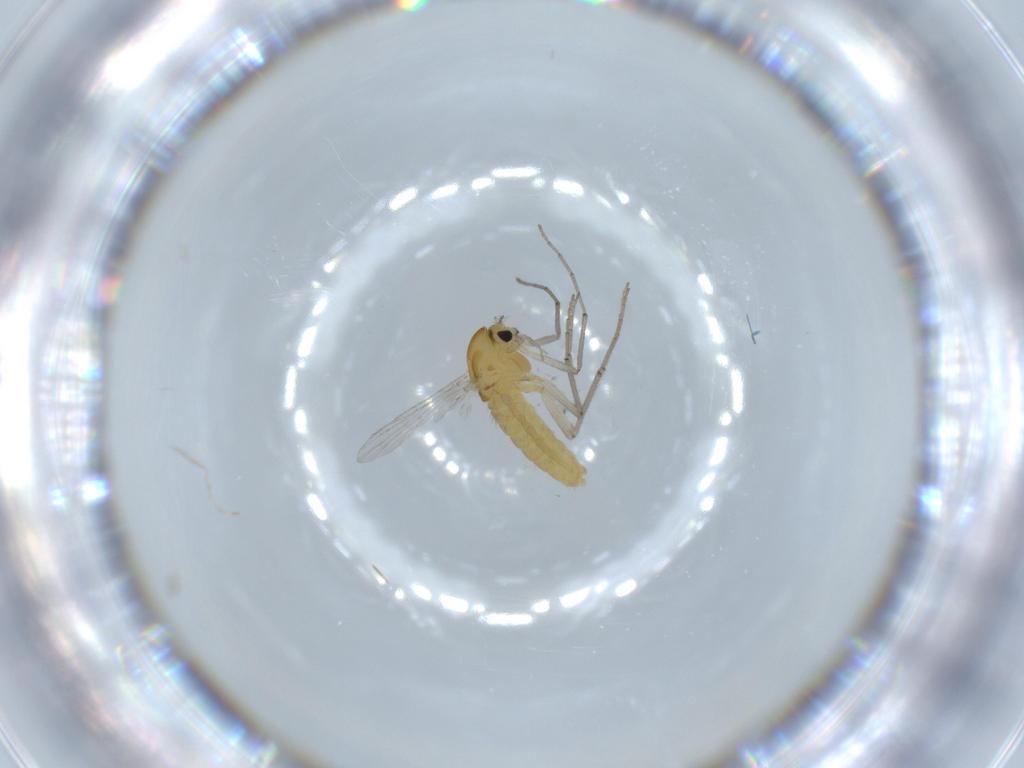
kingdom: Animalia
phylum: Arthropoda
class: Insecta
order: Diptera
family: Chironomidae
